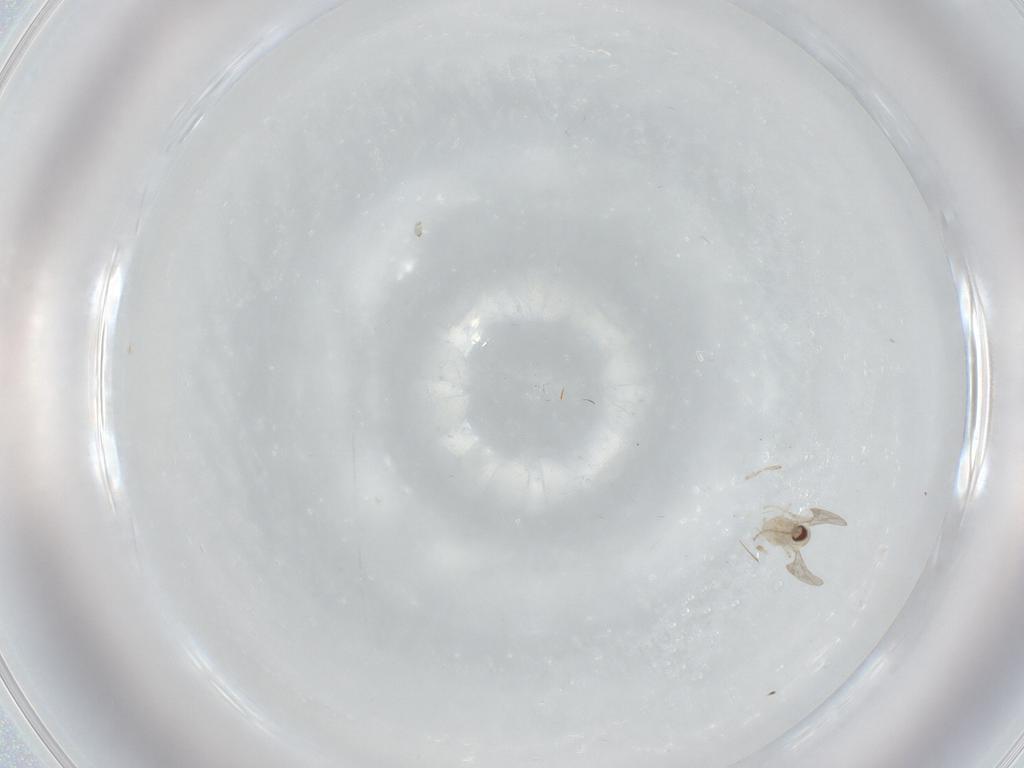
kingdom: Animalia
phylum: Arthropoda
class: Insecta
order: Diptera
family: Cecidomyiidae
